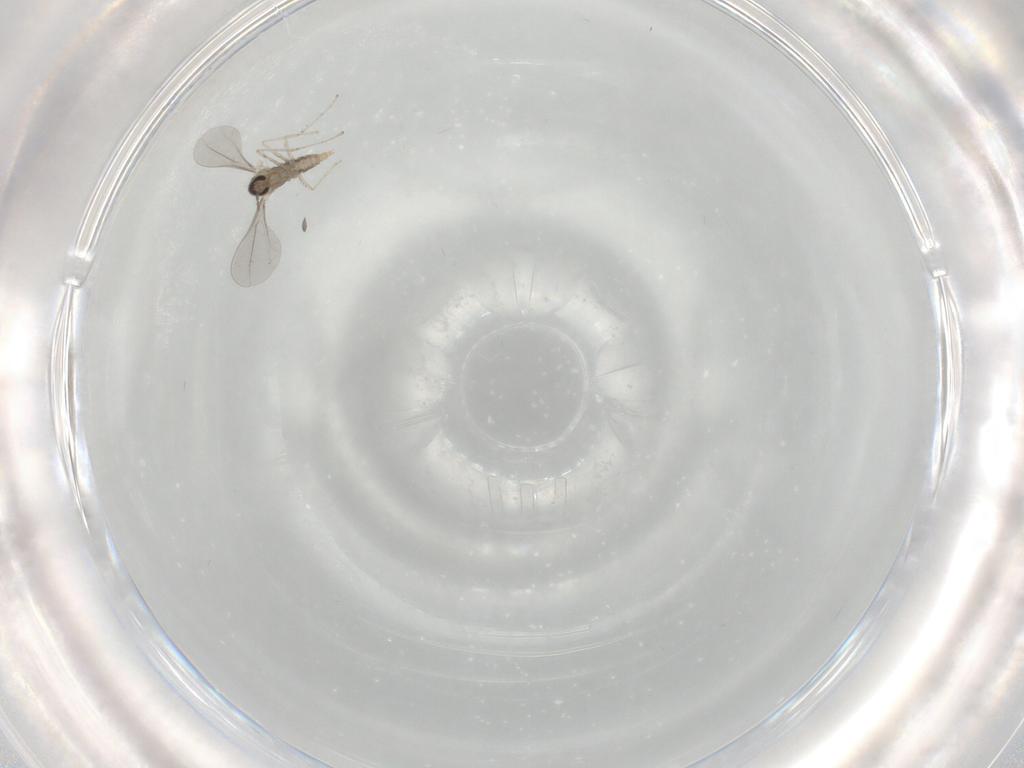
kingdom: Animalia
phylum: Arthropoda
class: Insecta
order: Diptera
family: Cecidomyiidae
